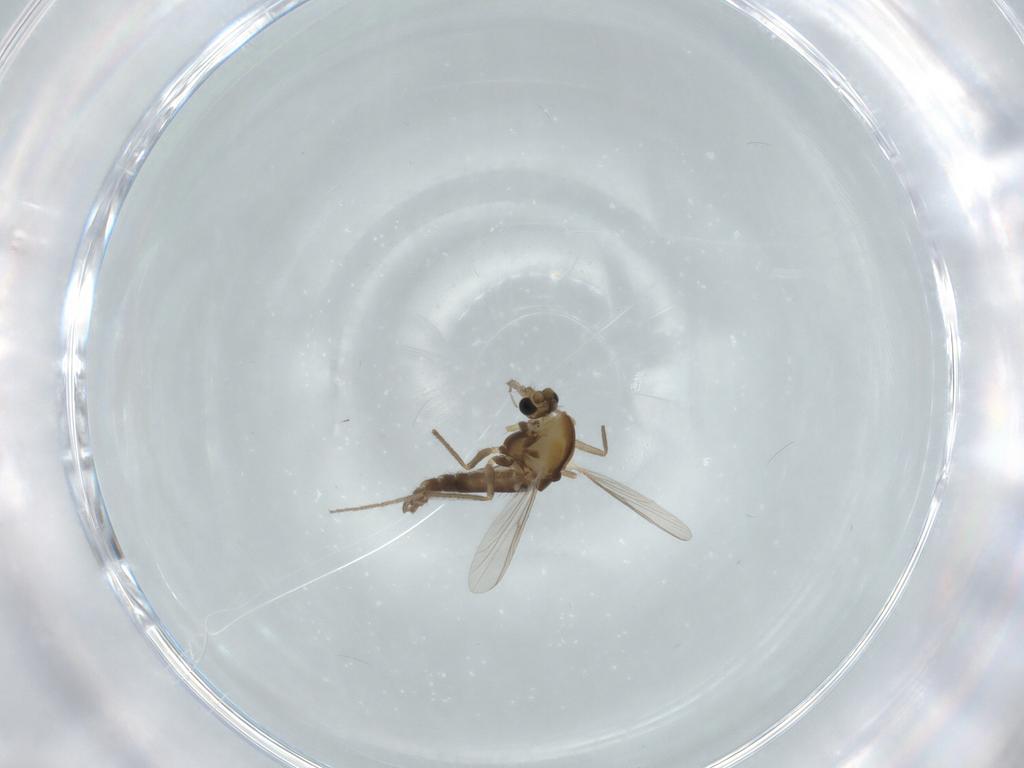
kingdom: Animalia
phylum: Arthropoda
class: Insecta
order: Diptera
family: Chironomidae
